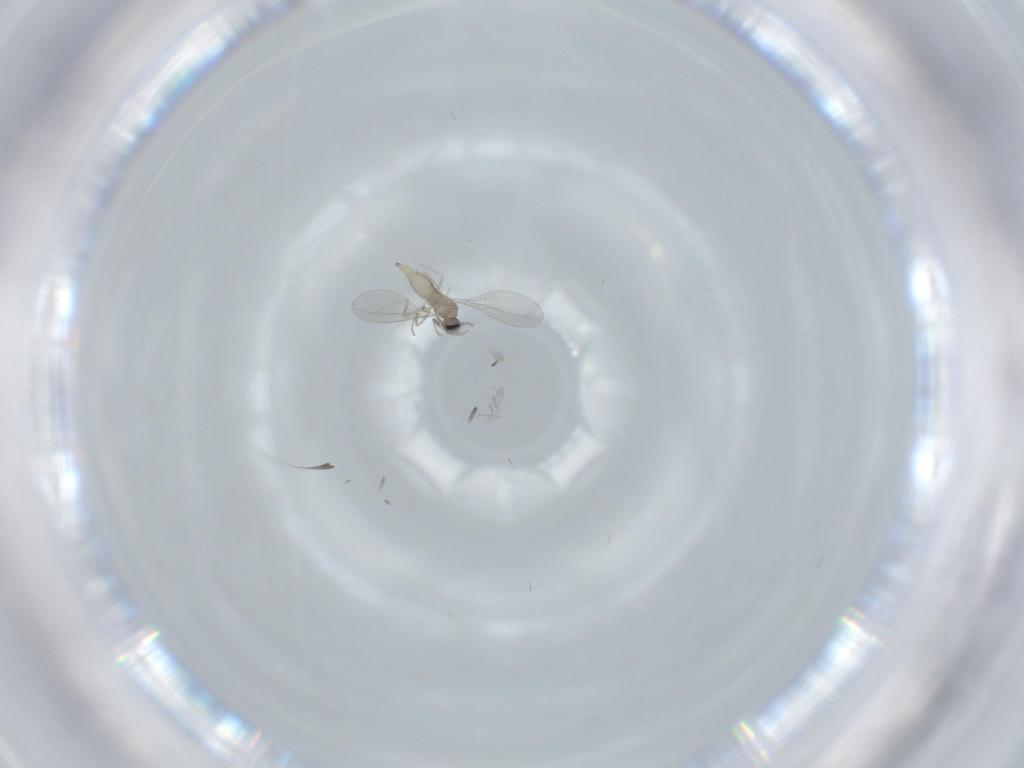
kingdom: Animalia
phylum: Arthropoda
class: Insecta
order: Diptera
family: Cecidomyiidae
